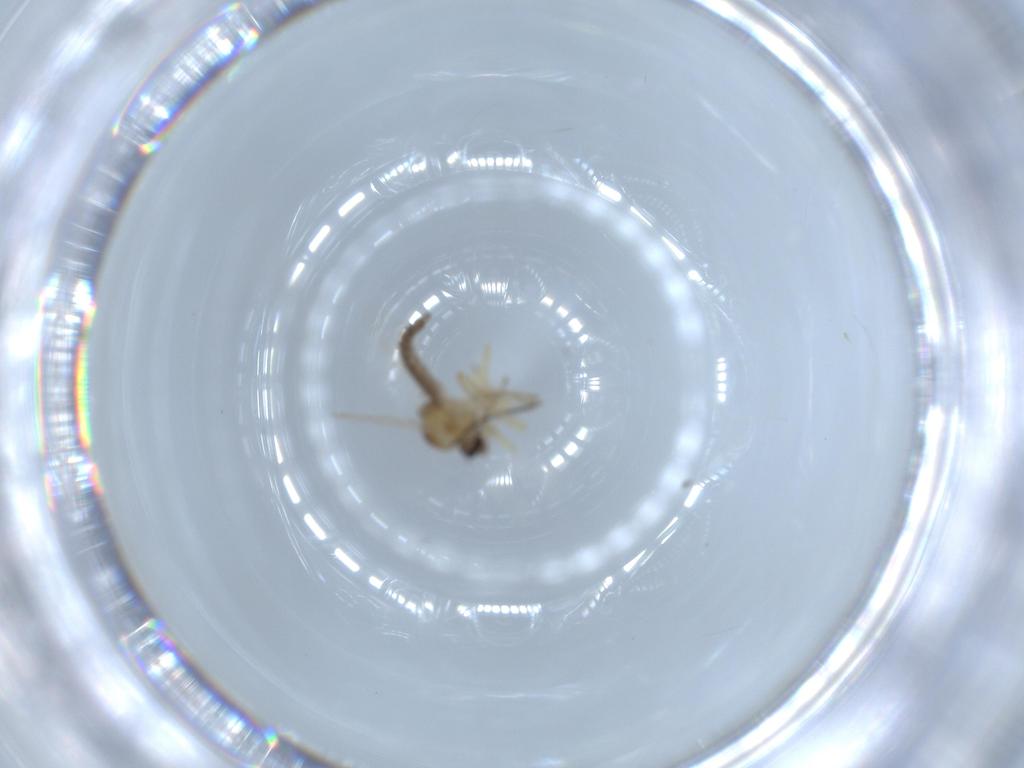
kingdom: Animalia
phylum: Arthropoda
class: Insecta
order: Diptera
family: Ceratopogonidae
